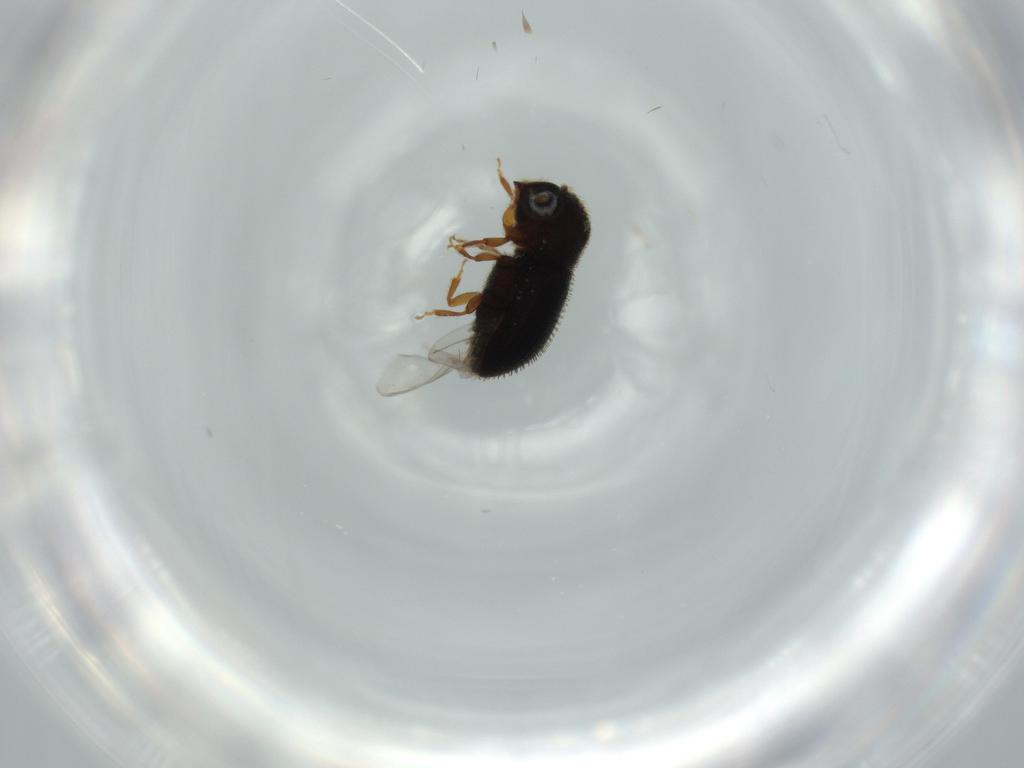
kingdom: Animalia
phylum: Arthropoda
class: Insecta
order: Coleoptera
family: Curculionidae
